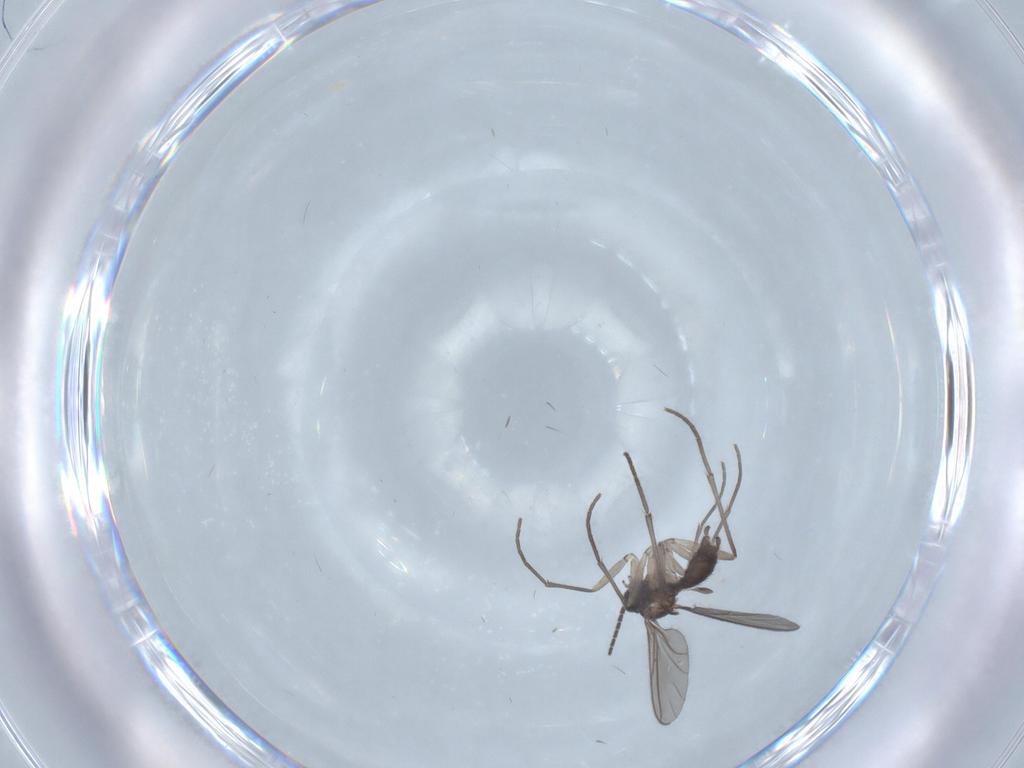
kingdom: Animalia
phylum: Arthropoda
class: Insecta
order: Diptera
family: Sciaridae
